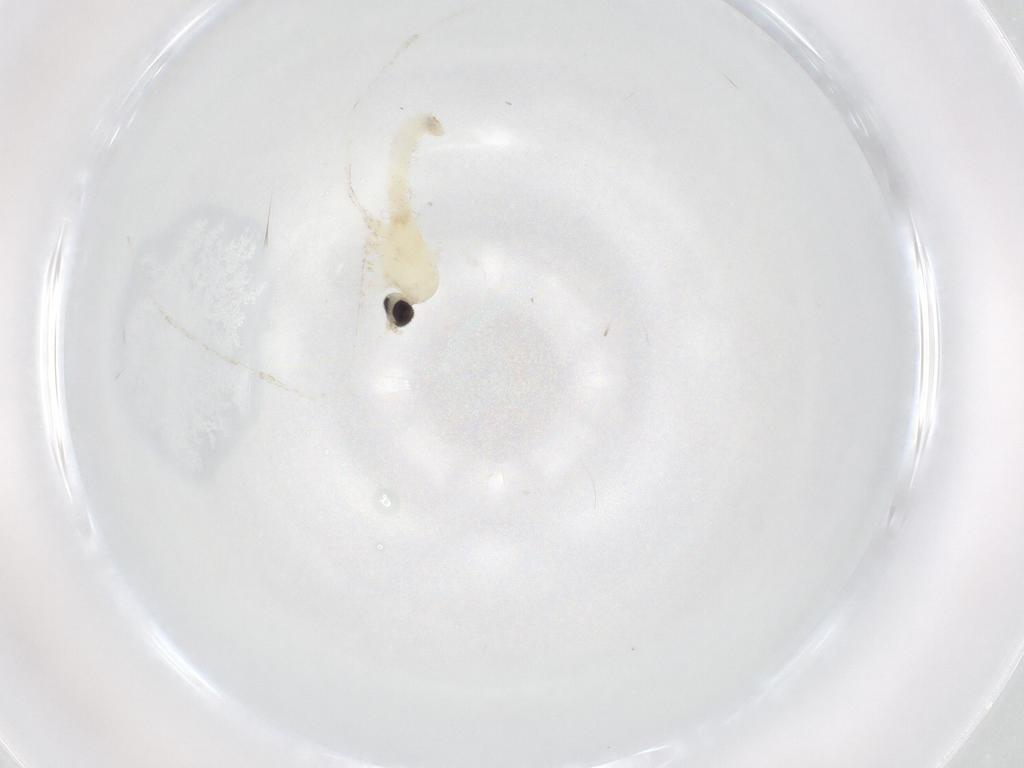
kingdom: Animalia
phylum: Arthropoda
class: Insecta
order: Diptera
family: Cecidomyiidae
